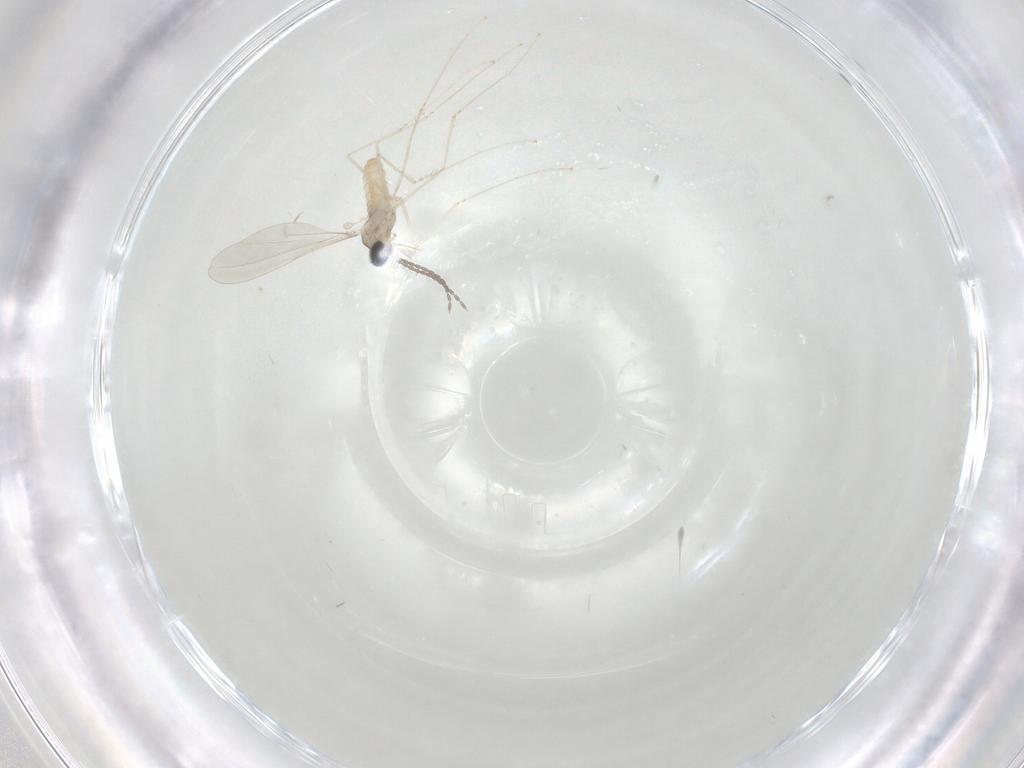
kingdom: Animalia
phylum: Arthropoda
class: Insecta
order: Diptera
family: Cecidomyiidae
